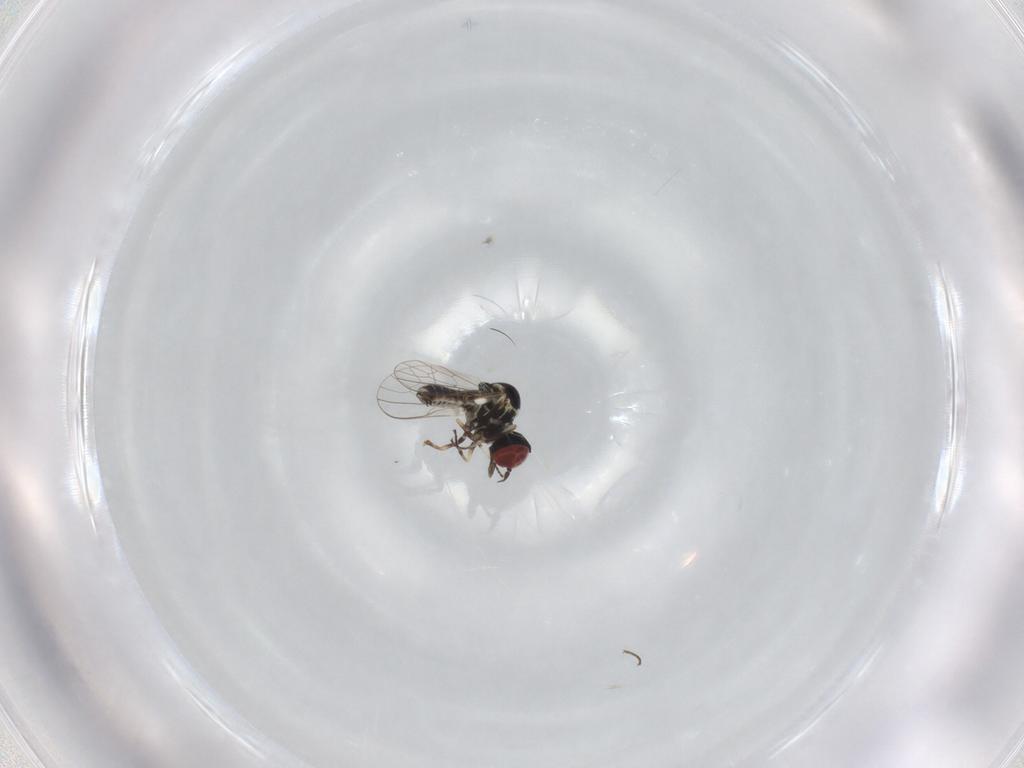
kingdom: Animalia
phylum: Arthropoda
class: Insecta
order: Diptera
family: Mythicomyiidae
